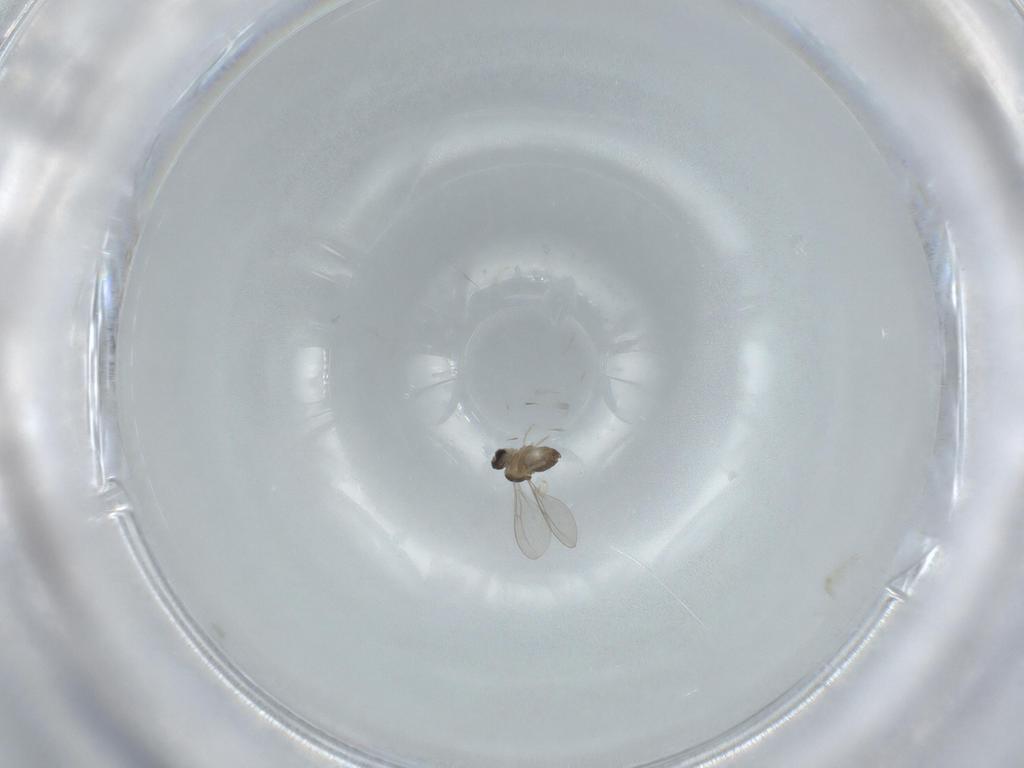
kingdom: Animalia
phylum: Arthropoda
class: Insecta
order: Diptera
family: Cecidomyiidae
